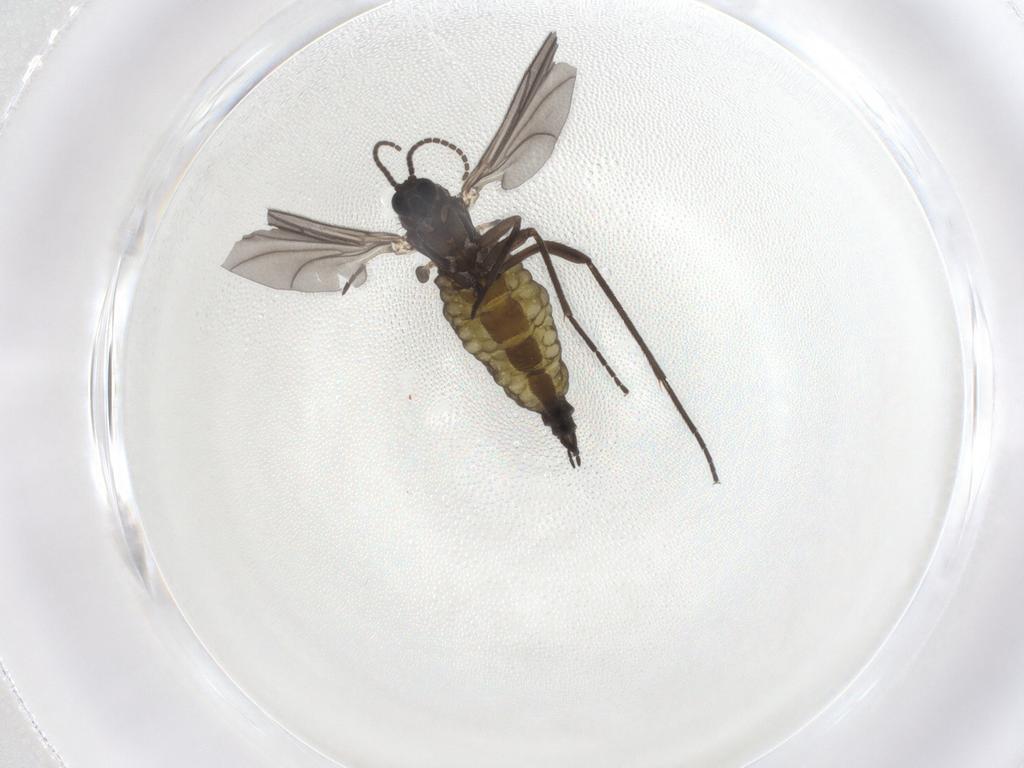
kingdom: Animalia
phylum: Arthropoda
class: Insecta
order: Diptera
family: Sciaridae
